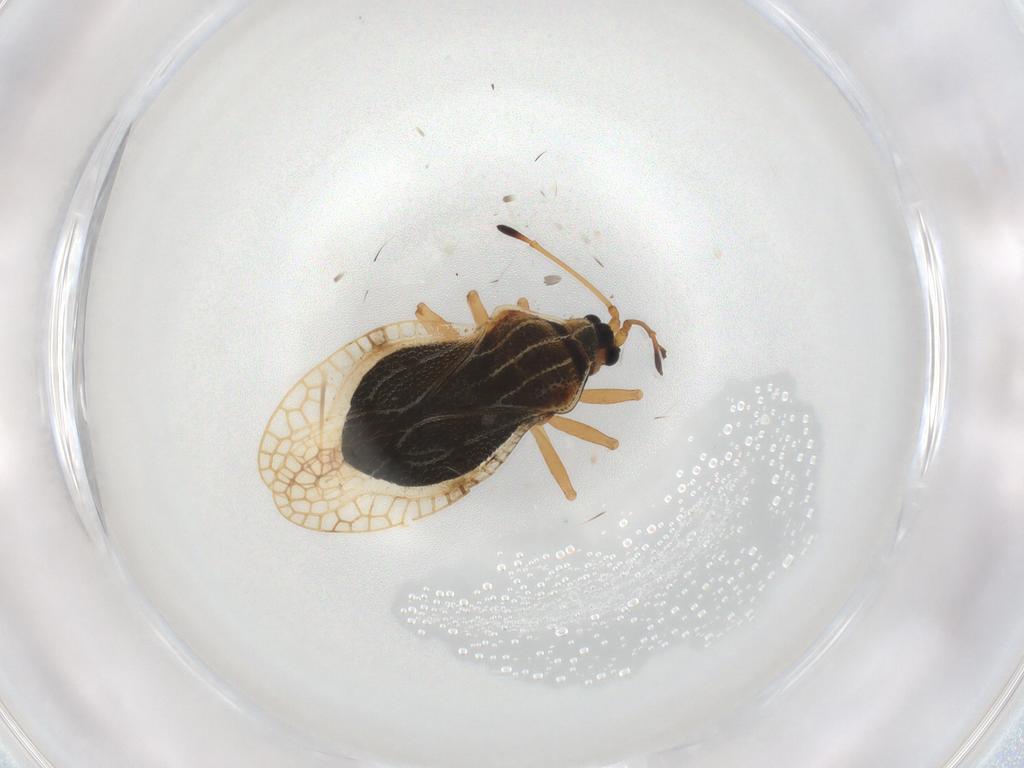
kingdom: Animalia
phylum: Arthropoda
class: Insecta
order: Hemiptera
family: Tingidae
